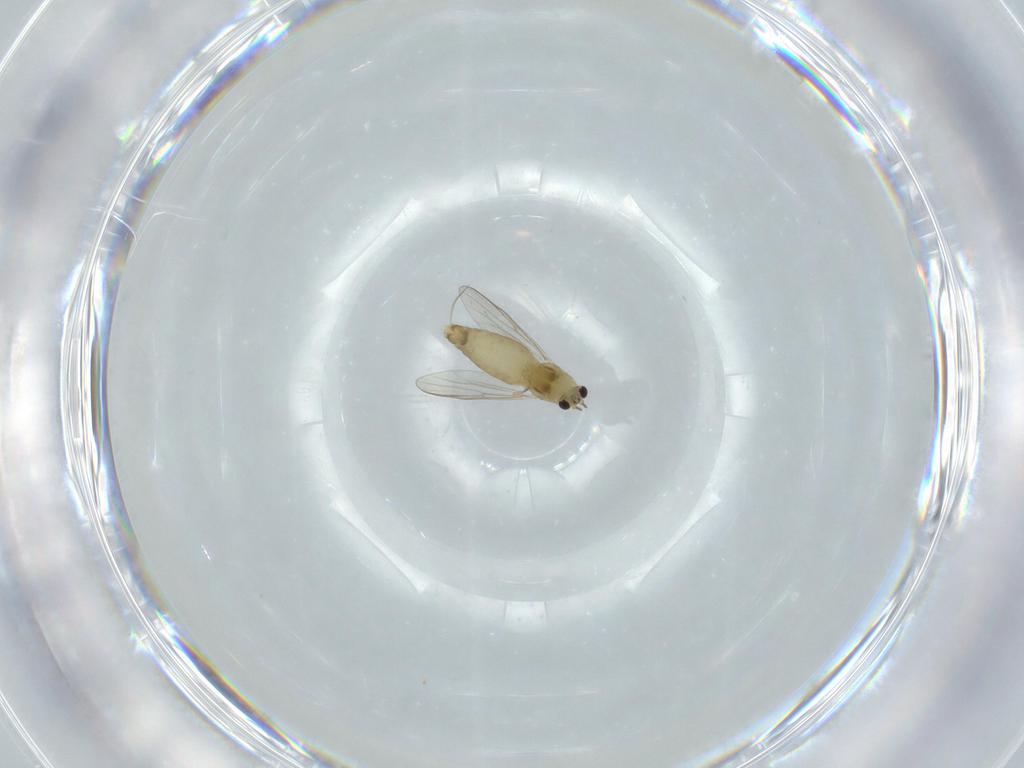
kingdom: Animalia
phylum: Arthropoda
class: Insecta
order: Diptera
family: Chironomidae
